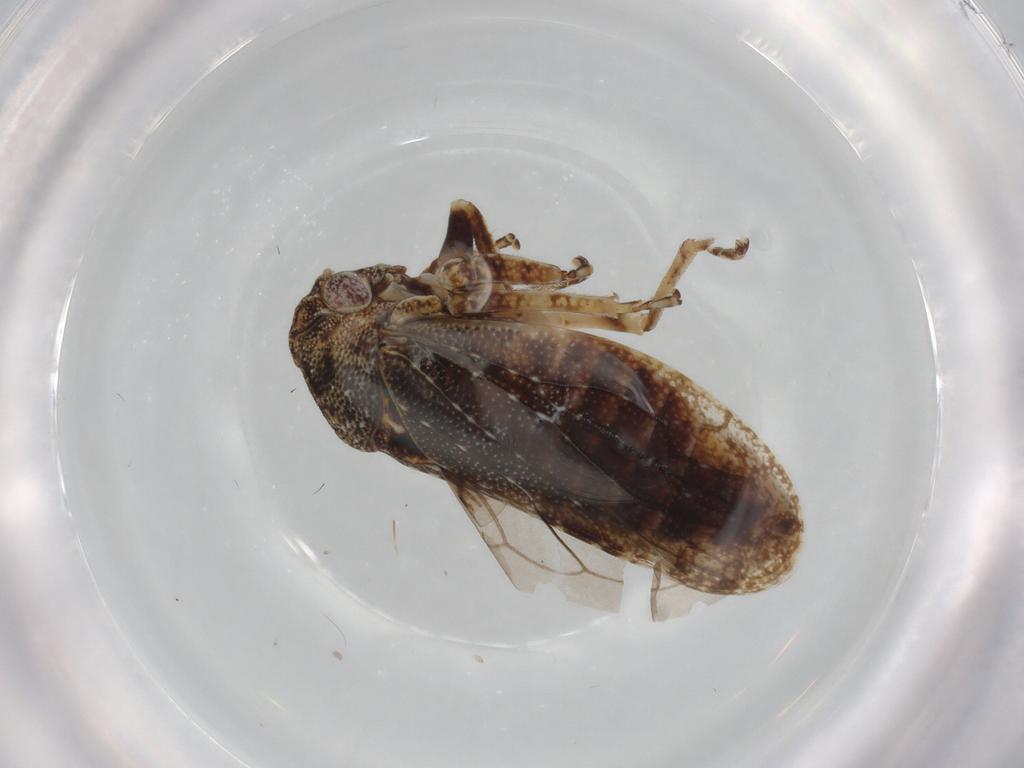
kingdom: Animalia
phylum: Arthropoda
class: Insecta
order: Hemiptera
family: Cicadellidae
